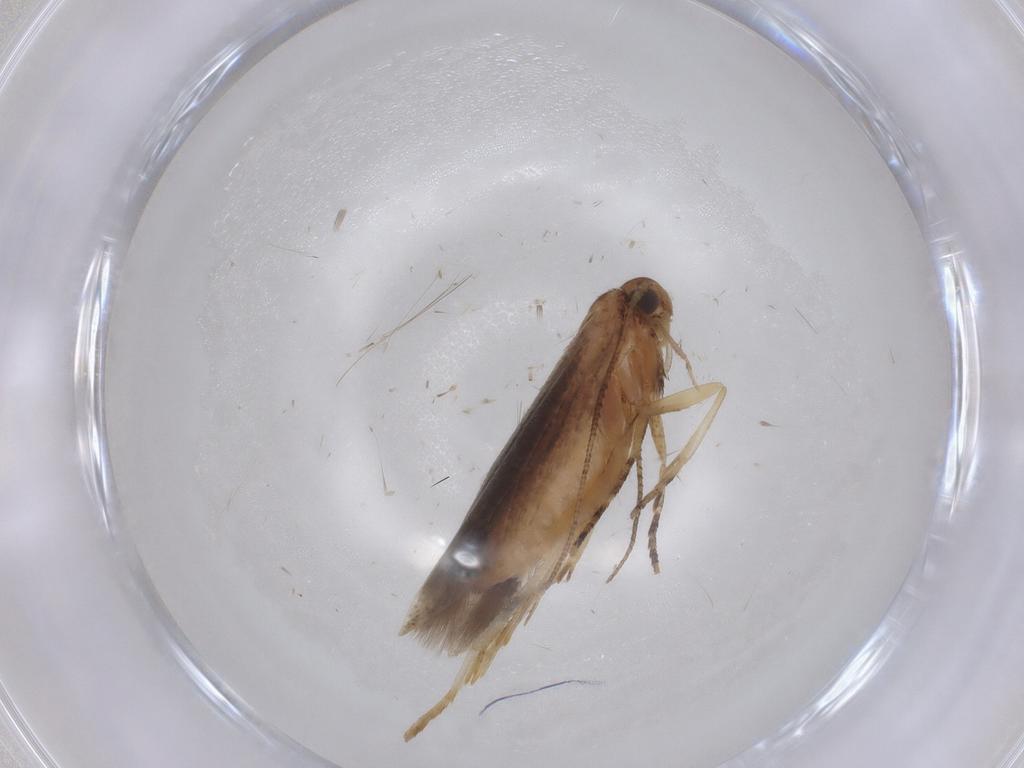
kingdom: Animalia
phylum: Arthropoda
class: Insecta
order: Lepidoptera
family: Gelechiidae
